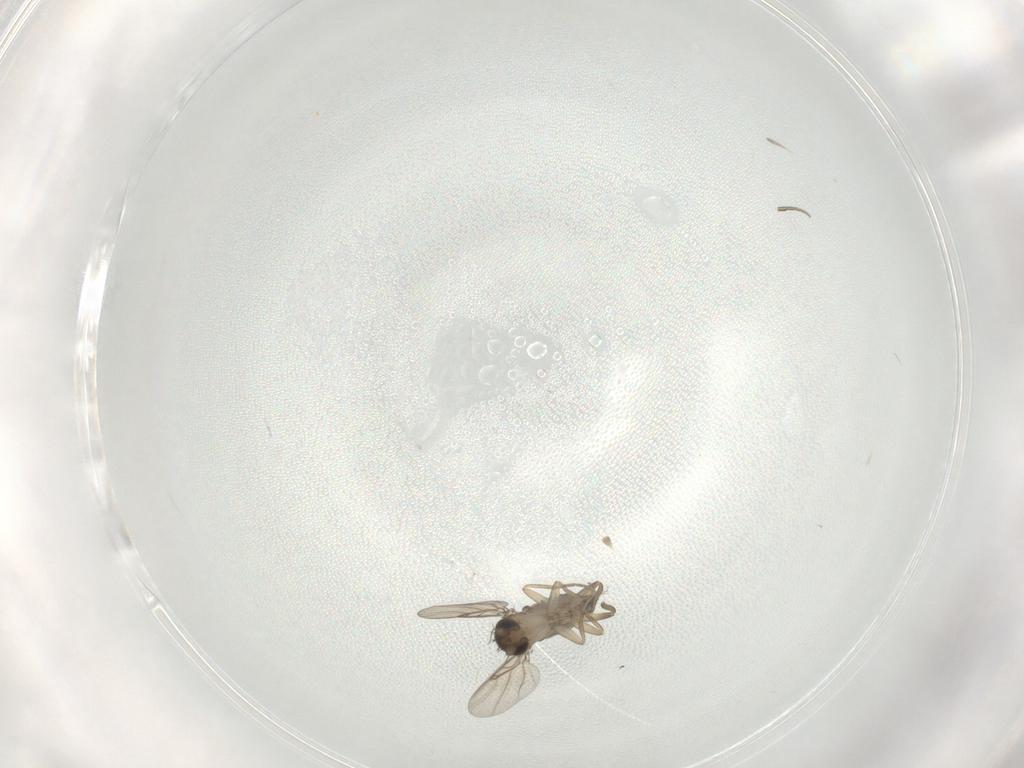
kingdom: Animalia
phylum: Arthropoda
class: Insecta
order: Diptera
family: Phoridae
